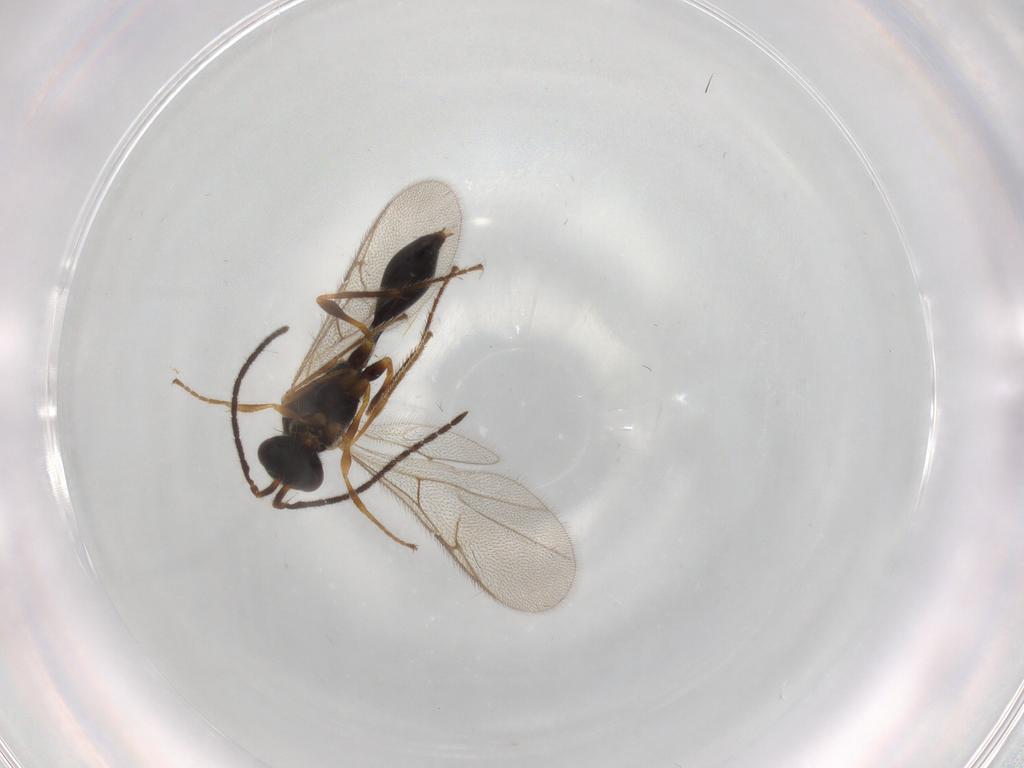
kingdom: Animalia
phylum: Arthropoda
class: Insecta
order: Hymenoptera
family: Diapriidae
